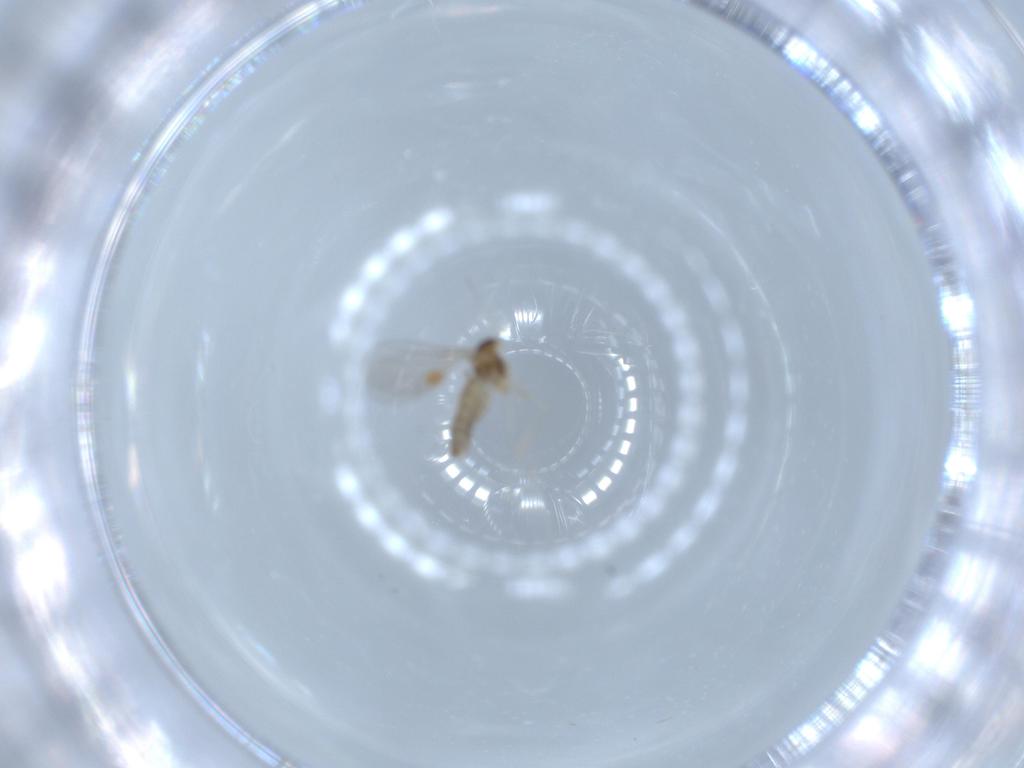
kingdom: Animalia
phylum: Arthropoda
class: Insecta
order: Diptera
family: Cecidomyiidae
